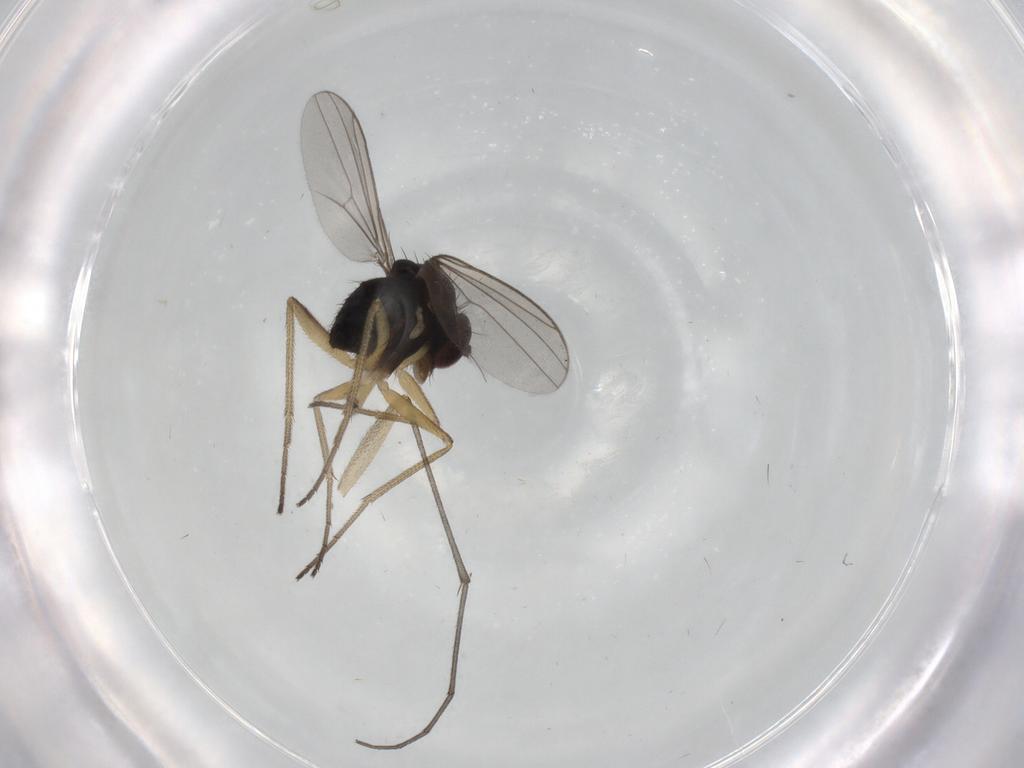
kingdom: Animalia
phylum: Arthropoda
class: Insecta
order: Diptera
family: Dolichopodidae
